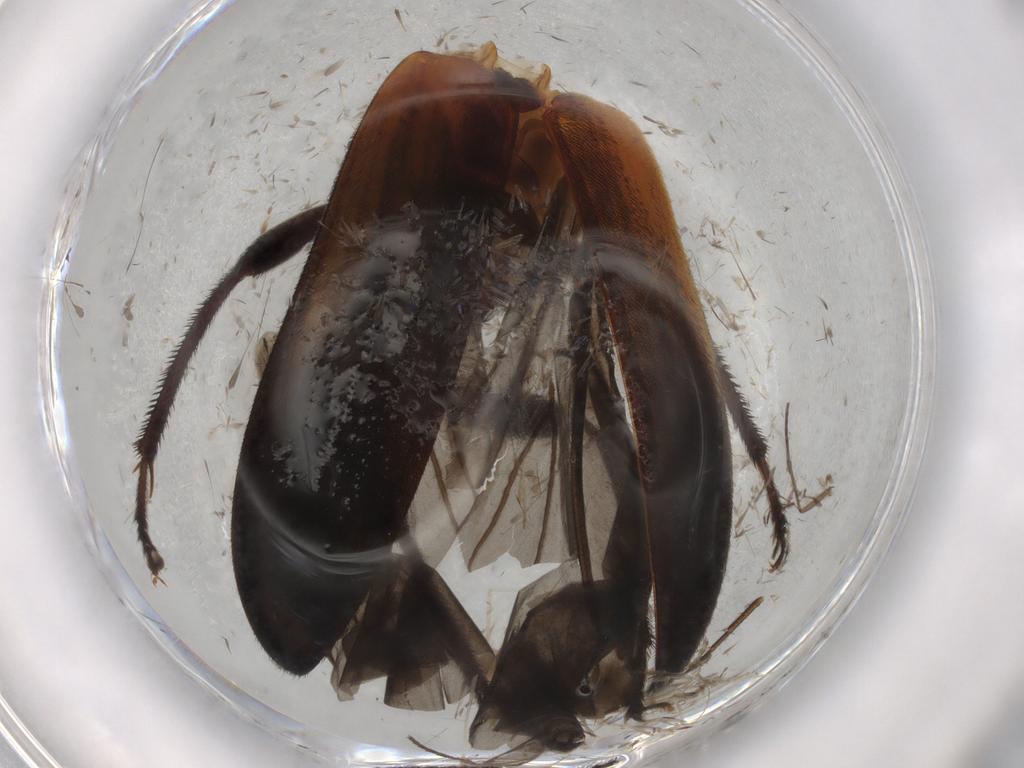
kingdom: Animalia
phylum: Arthropoda
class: Insecta
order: Coleoptera
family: Ptilodactylidae
